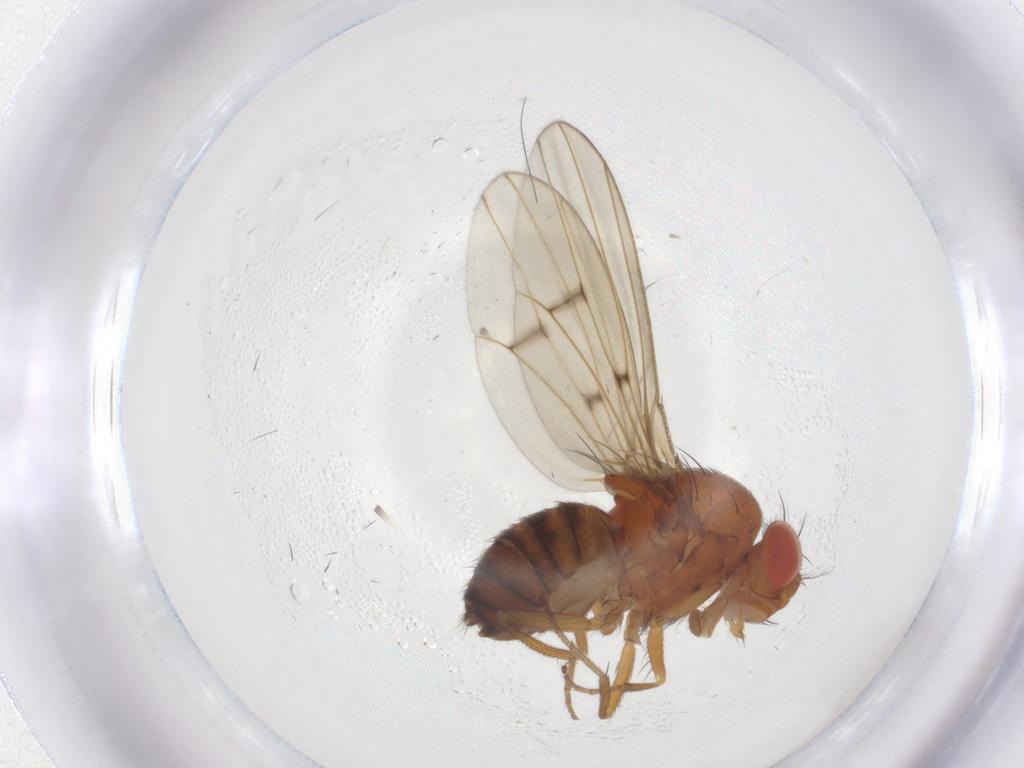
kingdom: Animalia
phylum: Arthropoda
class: Insecta
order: Diptera
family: Drosophilidae
